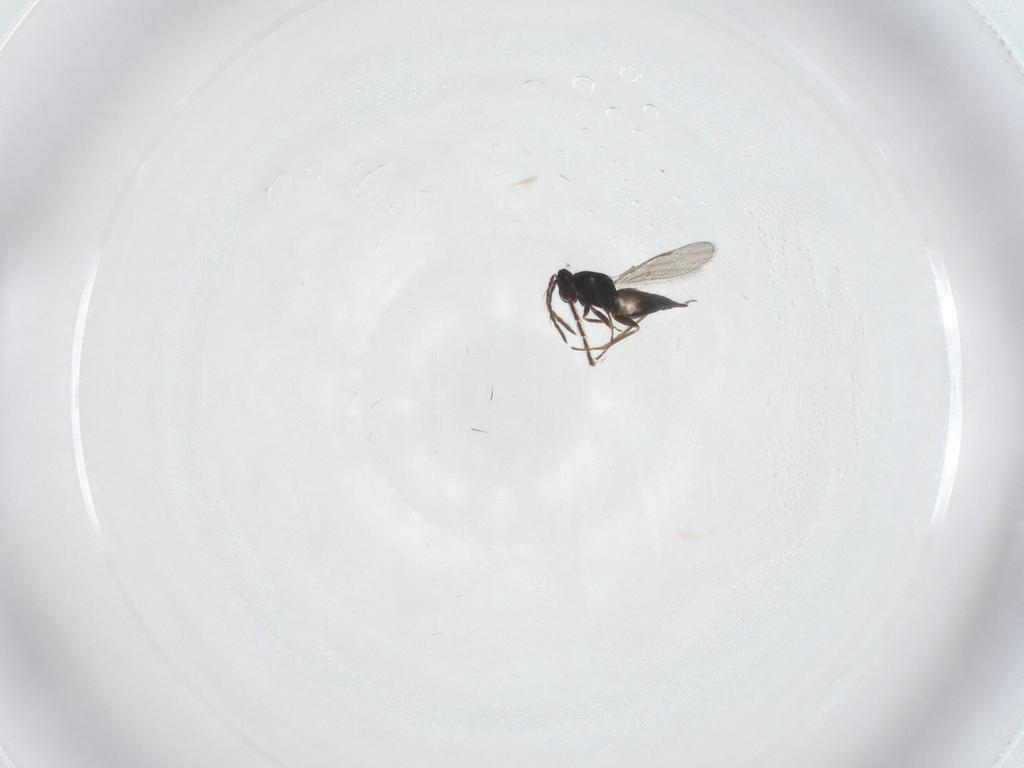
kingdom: Animalia
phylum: Arthropoda
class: Insecta
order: Hymenoptera
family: Eulophidae
